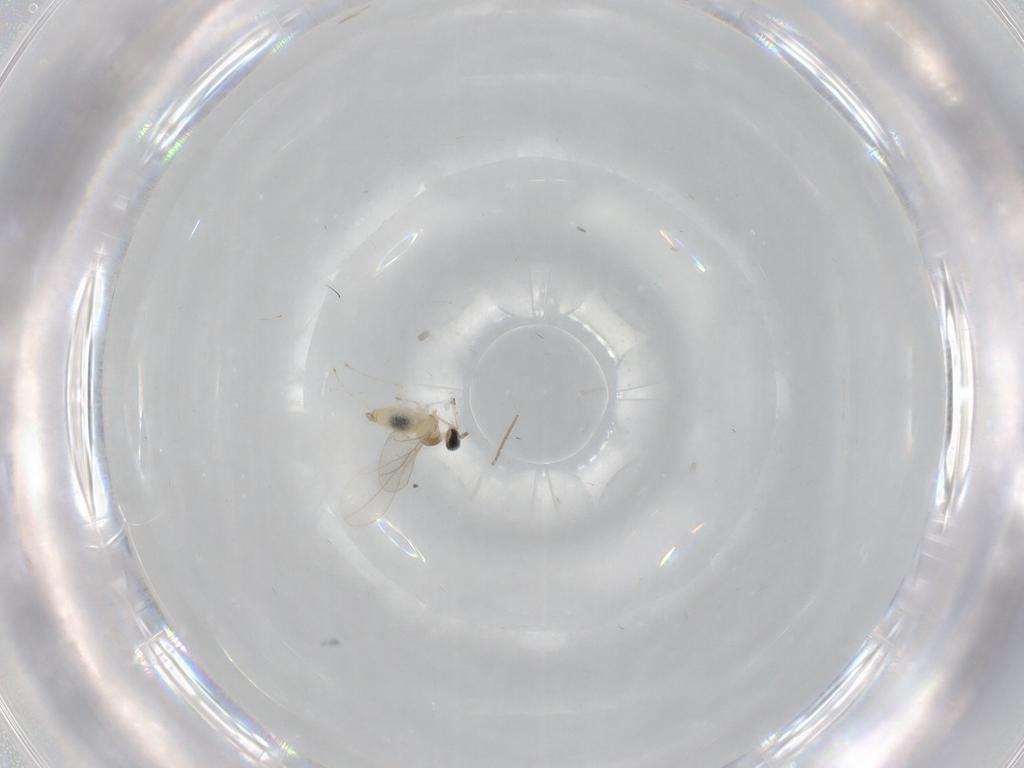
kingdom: Animalia
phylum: Arthropoda
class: Insecta
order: Diptera
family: Cecidomyiidae
